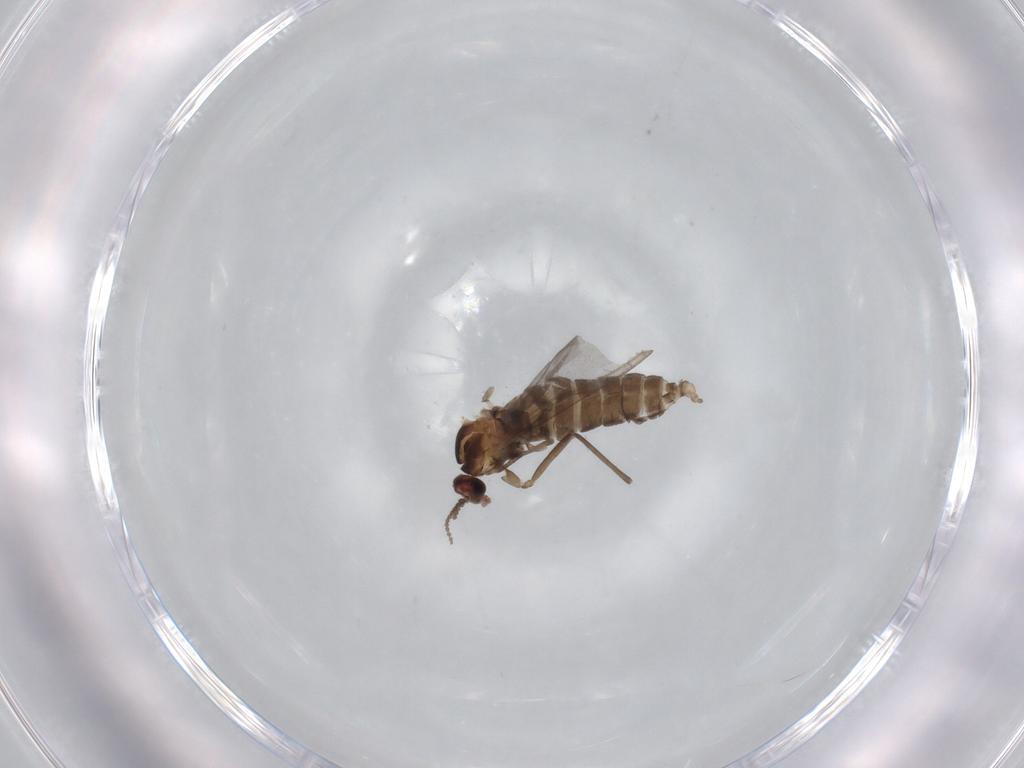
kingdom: Animalia
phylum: Arthropoda
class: Insecta
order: Diptera
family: Cecidomyiidae
